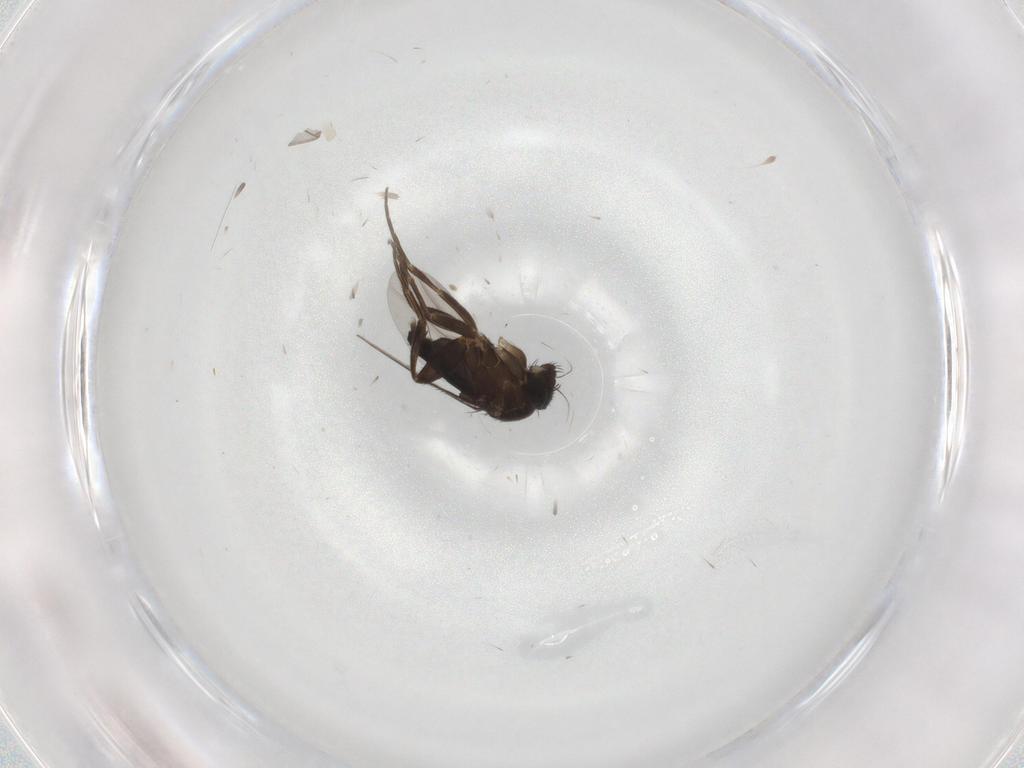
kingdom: Animalia
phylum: Arthropoda
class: Insecta
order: Diptera
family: Phoridae
